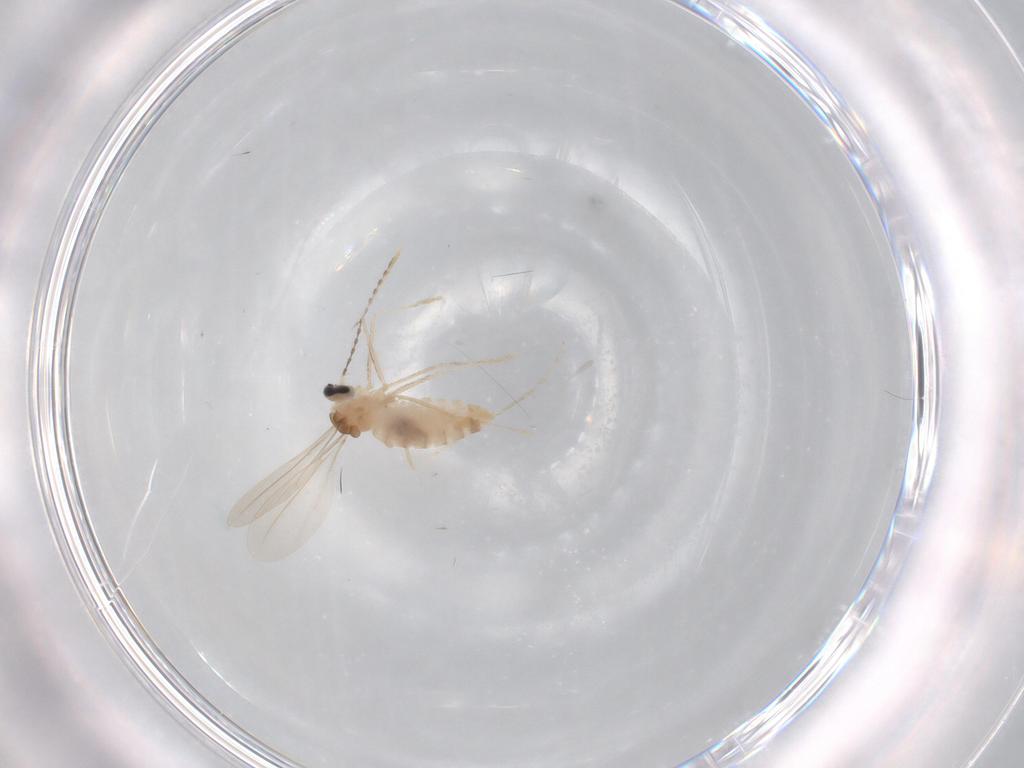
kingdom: Animalia
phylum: Arthropoda
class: Insecta
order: Diptera
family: Cecidomyiidae
